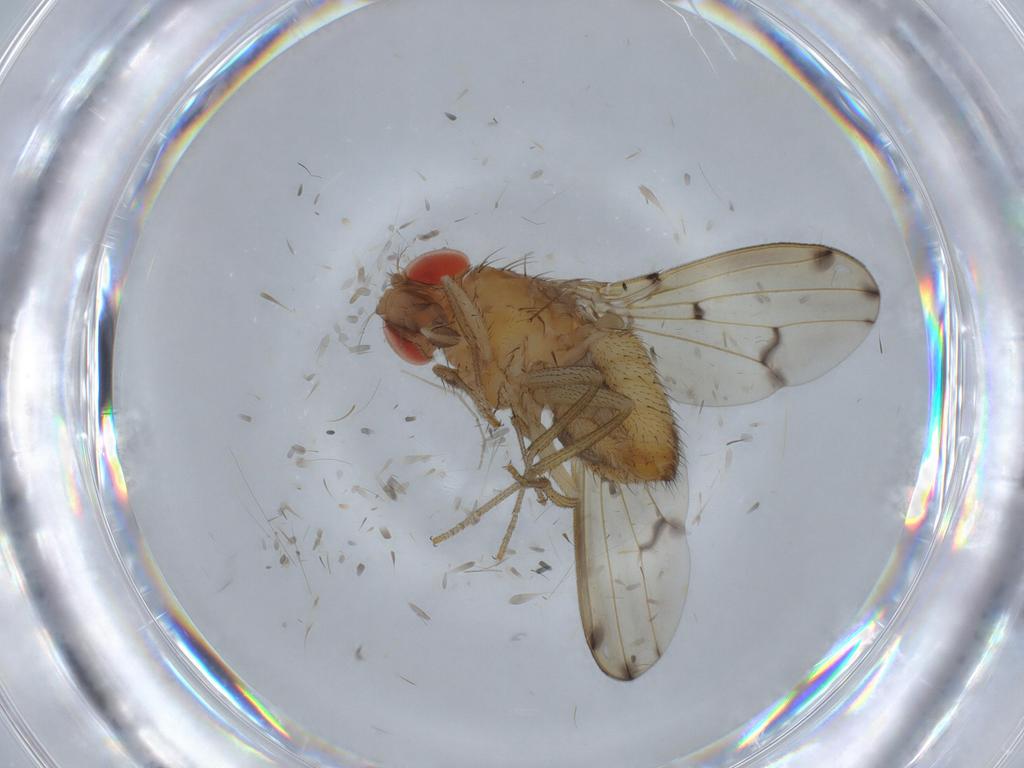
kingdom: Animalia
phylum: Arthropoda
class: Insecta
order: Diptera
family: Drosophilidae
